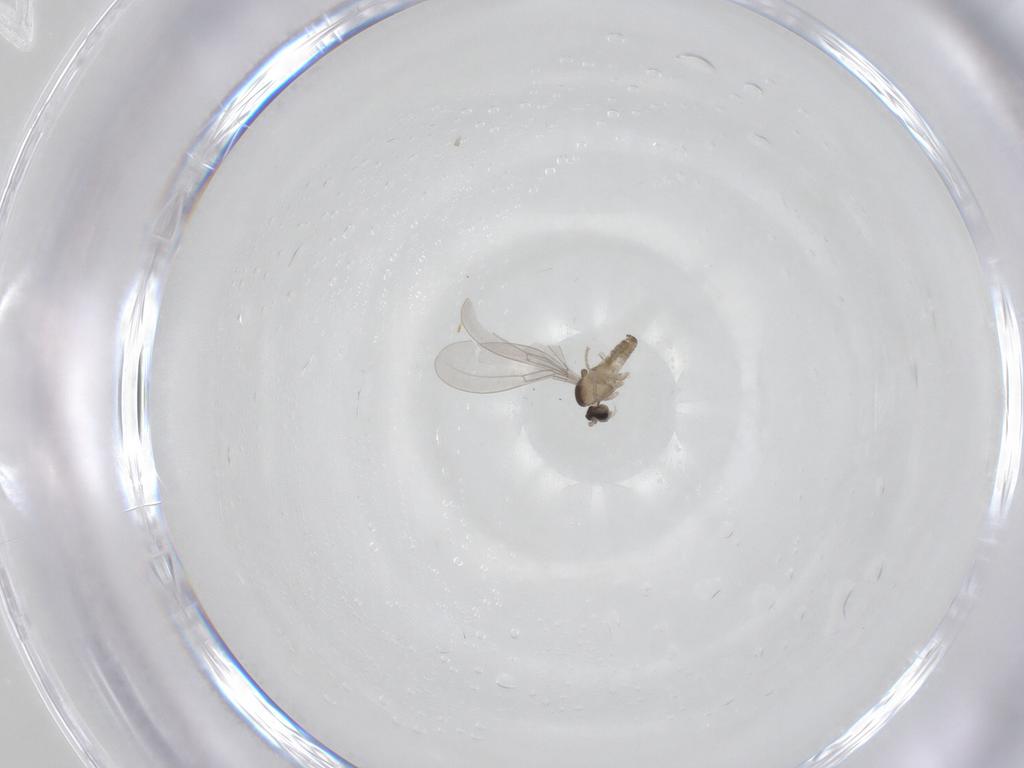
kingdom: Animalia
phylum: Arthropoda
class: Insecta
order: Diptera
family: Cecidomyiidae
